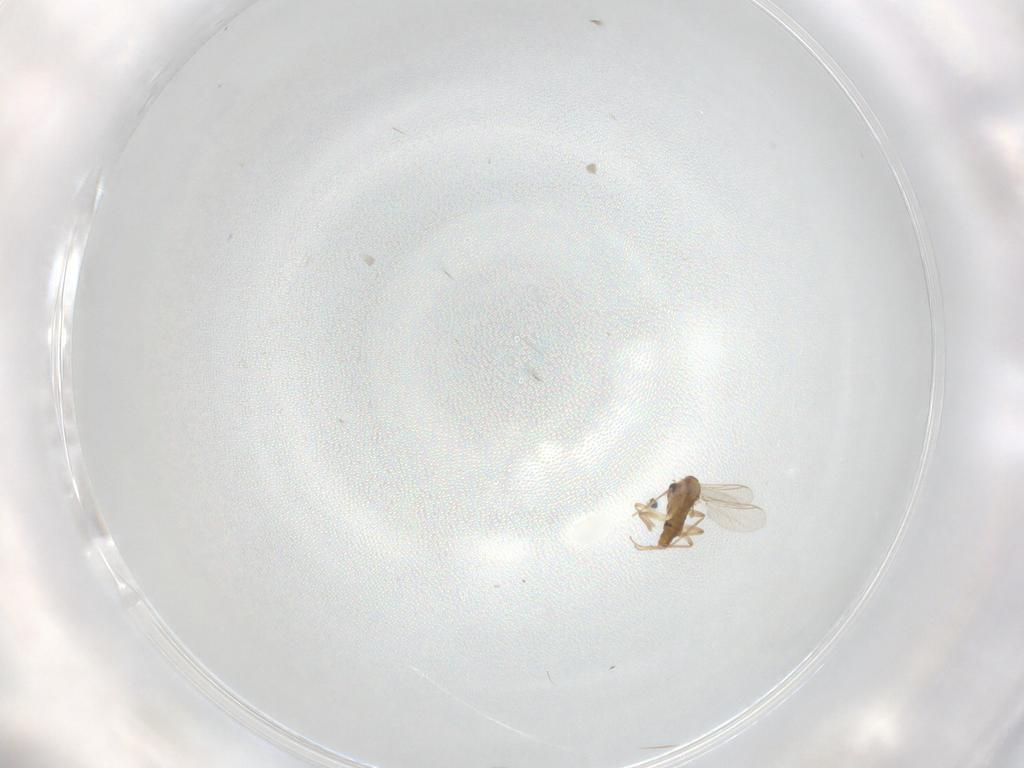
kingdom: Animalia
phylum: Arthropoda
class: Insecta
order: Diptera
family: Chironomidae
